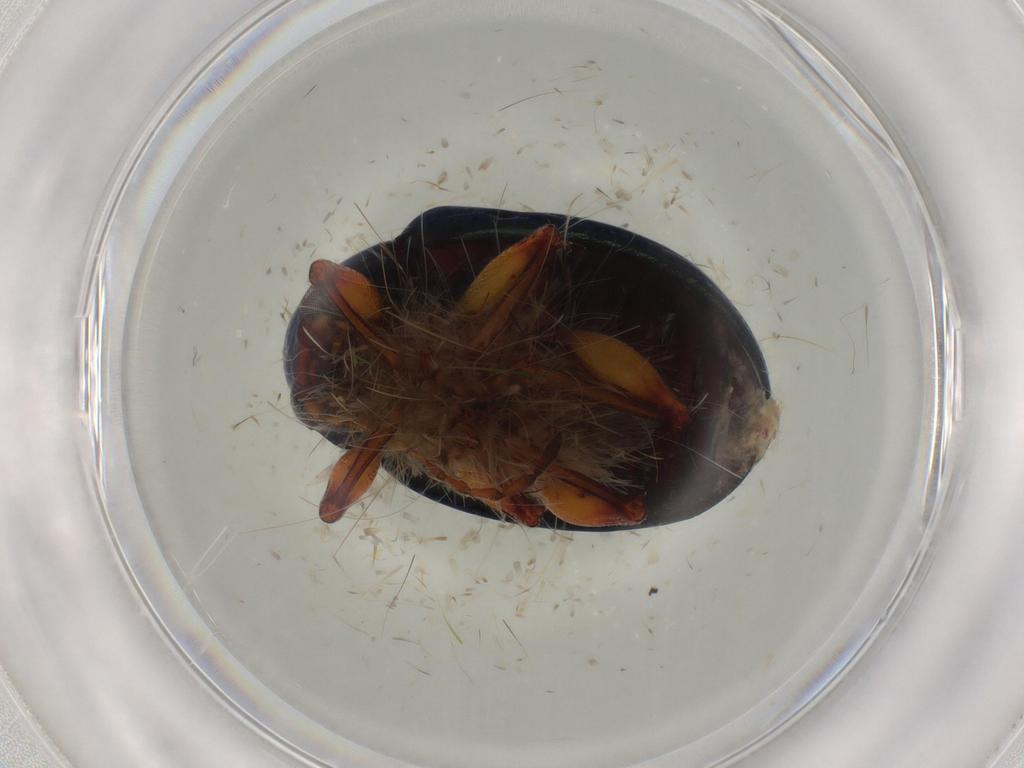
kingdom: Animalia
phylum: Arthropoda
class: Insecta
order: Coleoptera
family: Chrysomelidae
